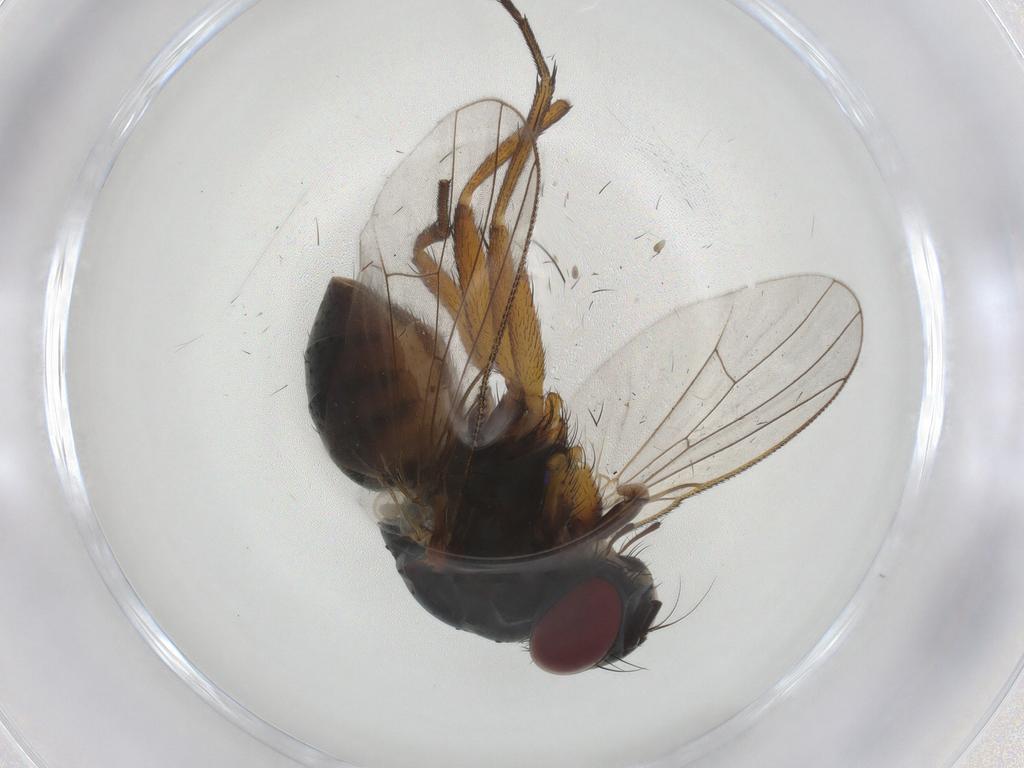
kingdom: Animalia
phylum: Arthropoda
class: Insecta
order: Diptera
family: Muscidae
